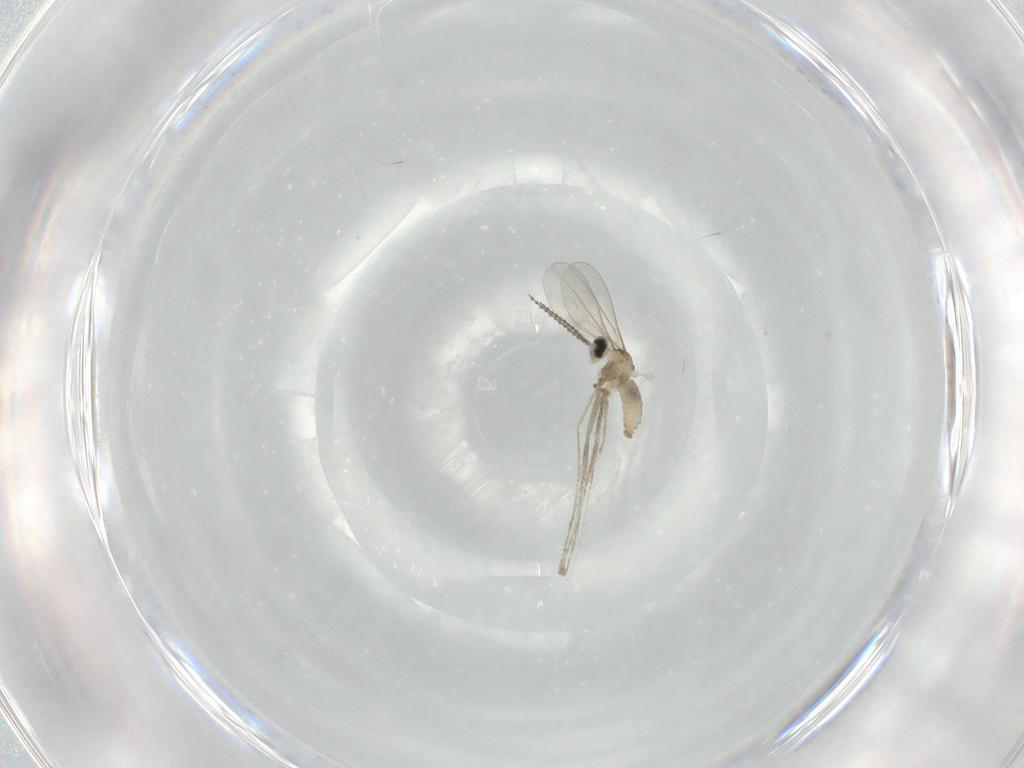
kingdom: Animalia
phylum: Arthropoda
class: Insecta
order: Diptera
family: Cecidomyiidae
